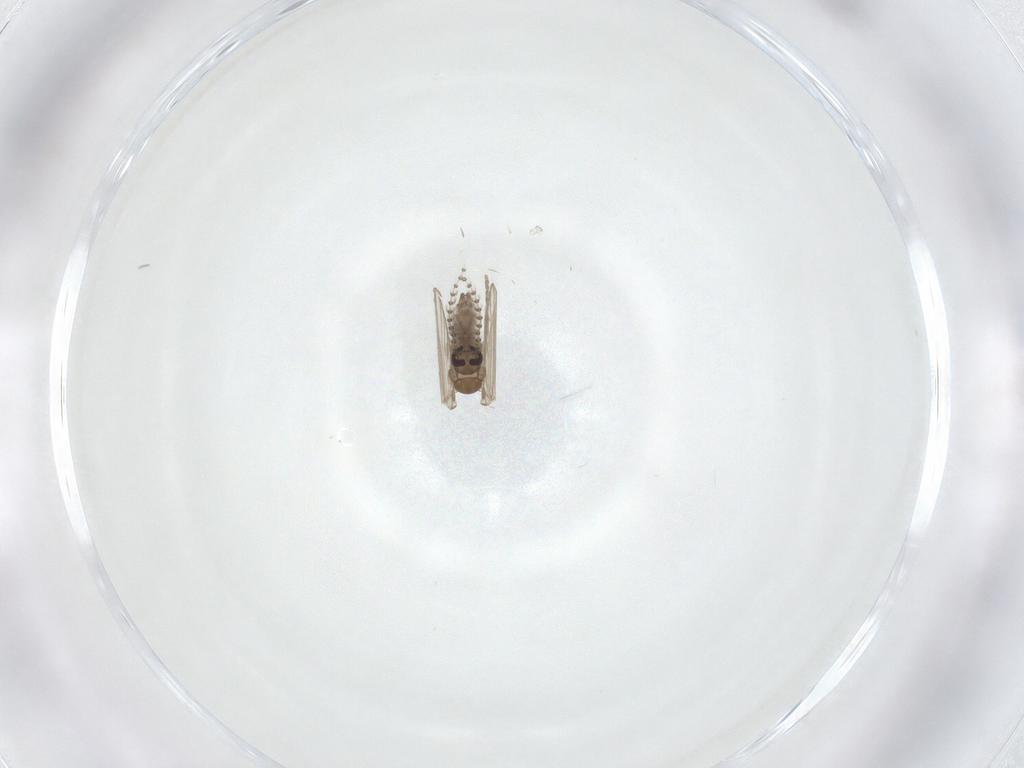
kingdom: Animalia
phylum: Arthropoda
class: Insecta
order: Diptera
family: Psychodidae
